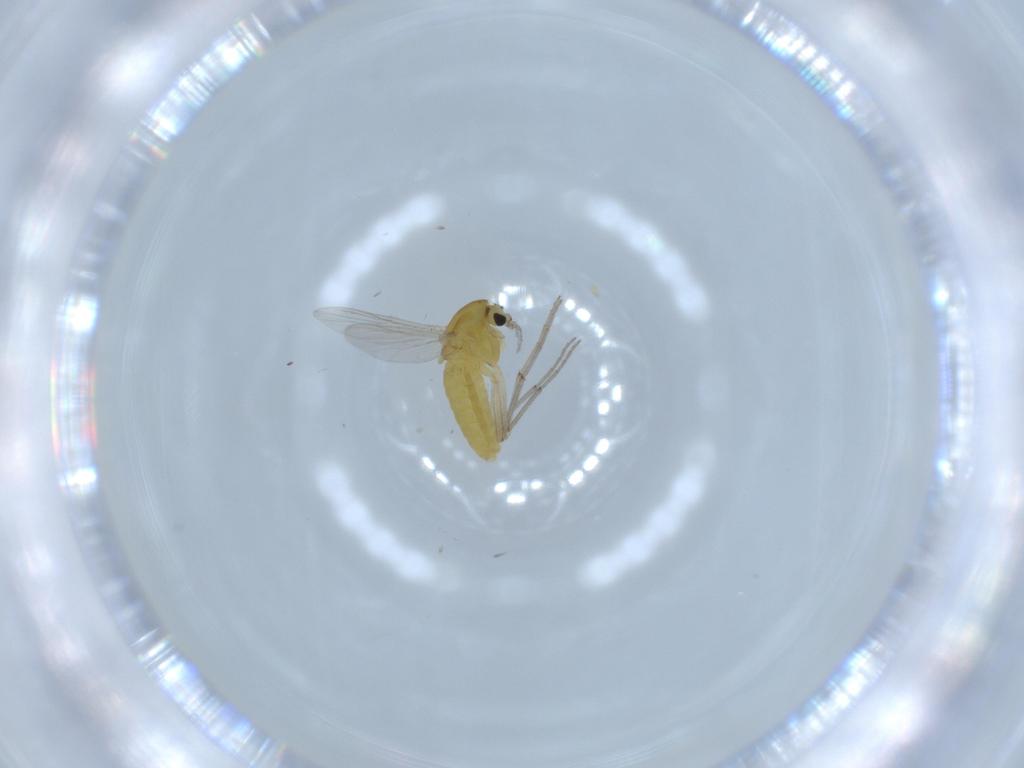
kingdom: Animalia
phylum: Arthropoda
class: Insecta
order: Diptera
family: Chironomidae
